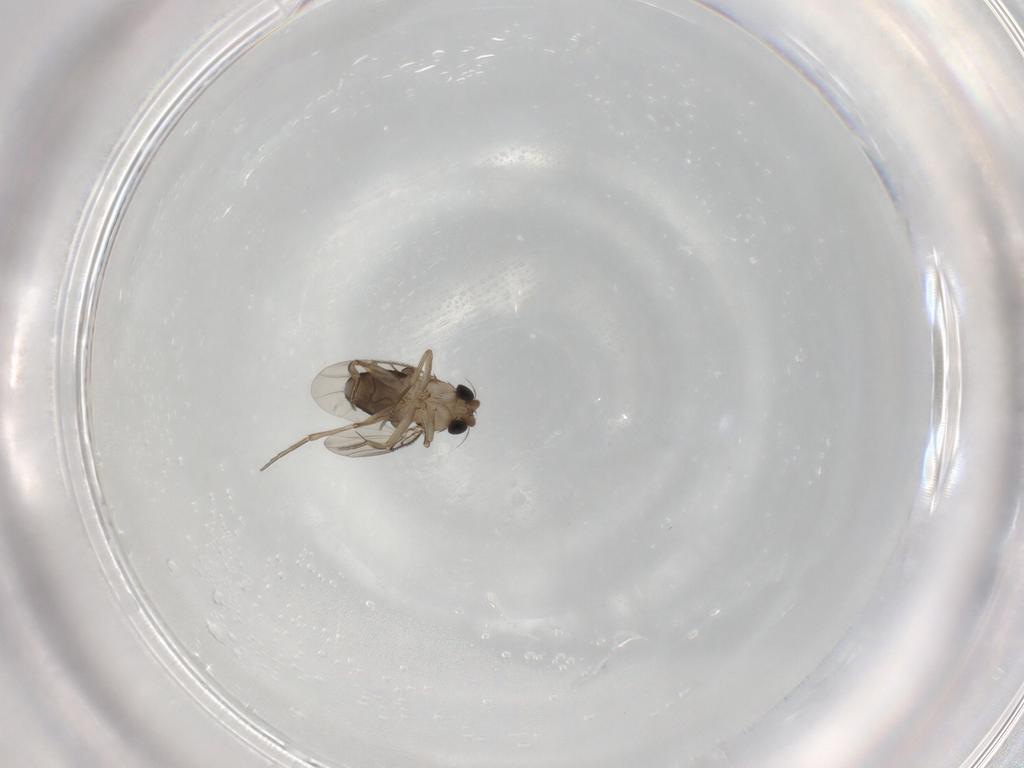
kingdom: Animalia
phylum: Arthropoda
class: Insecta
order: Diptera
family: Phoridae
